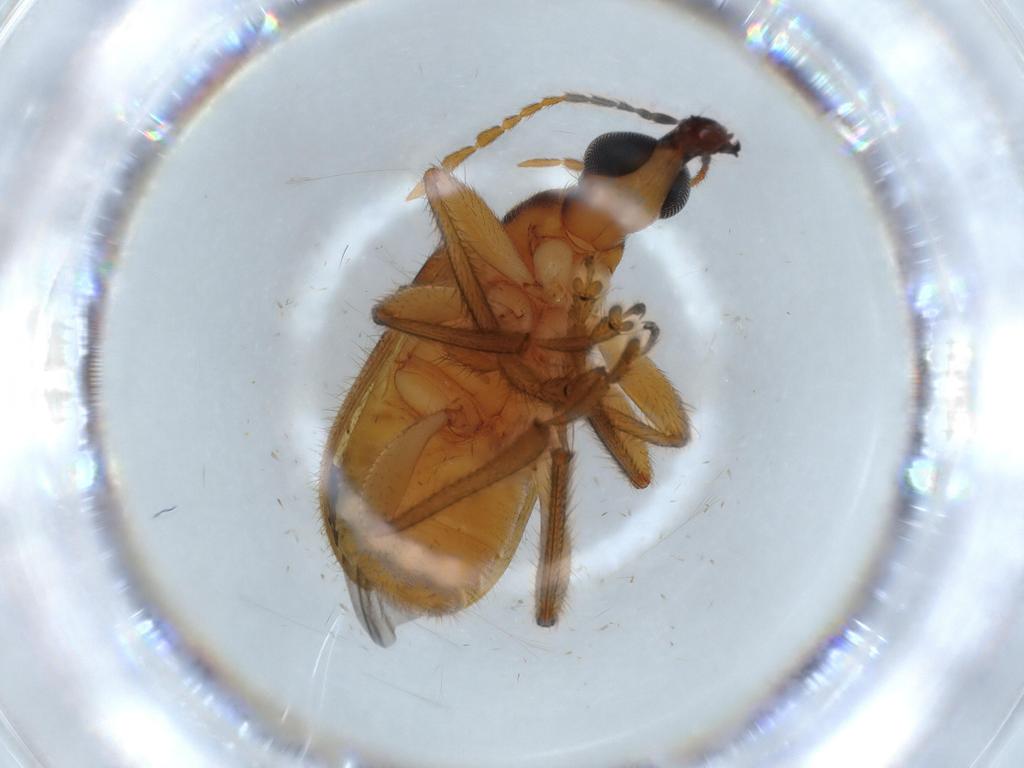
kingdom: Animalia
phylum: Arthropoda
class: Insecta
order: Coleoptera
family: Attelabidae
